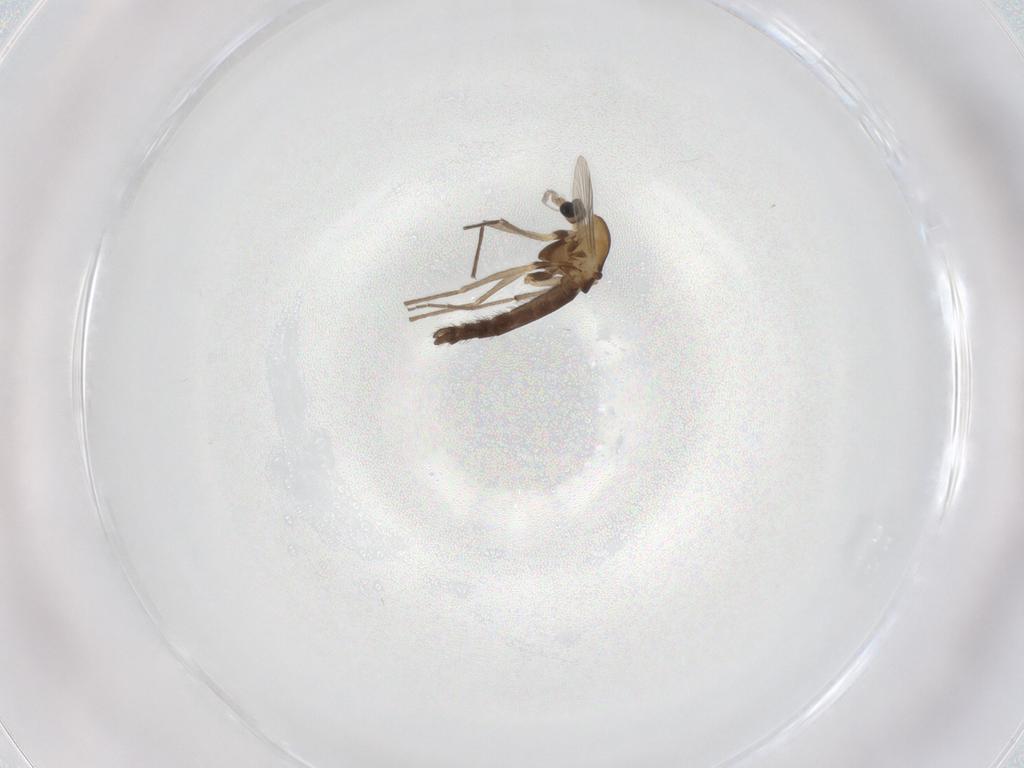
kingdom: Animalia
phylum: Arthropoda
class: Insecta
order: Diptera
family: Chironomidae
